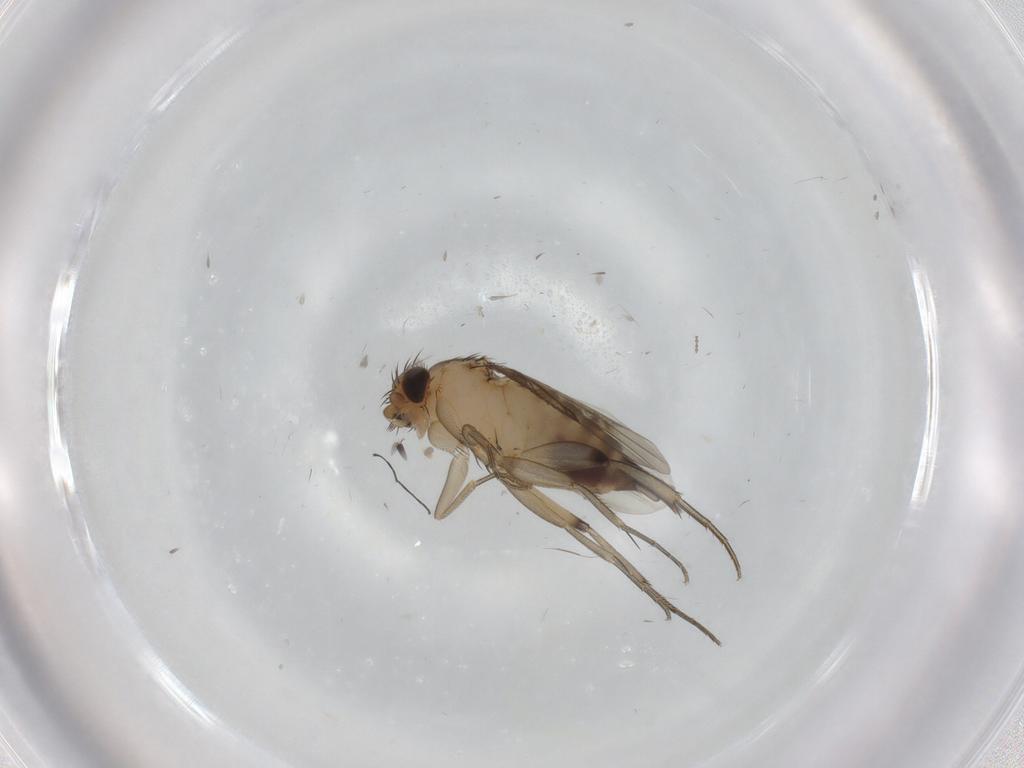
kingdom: Animalia
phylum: Arthropoda
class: Insecta
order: Diptera
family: Cecidomyiidae
